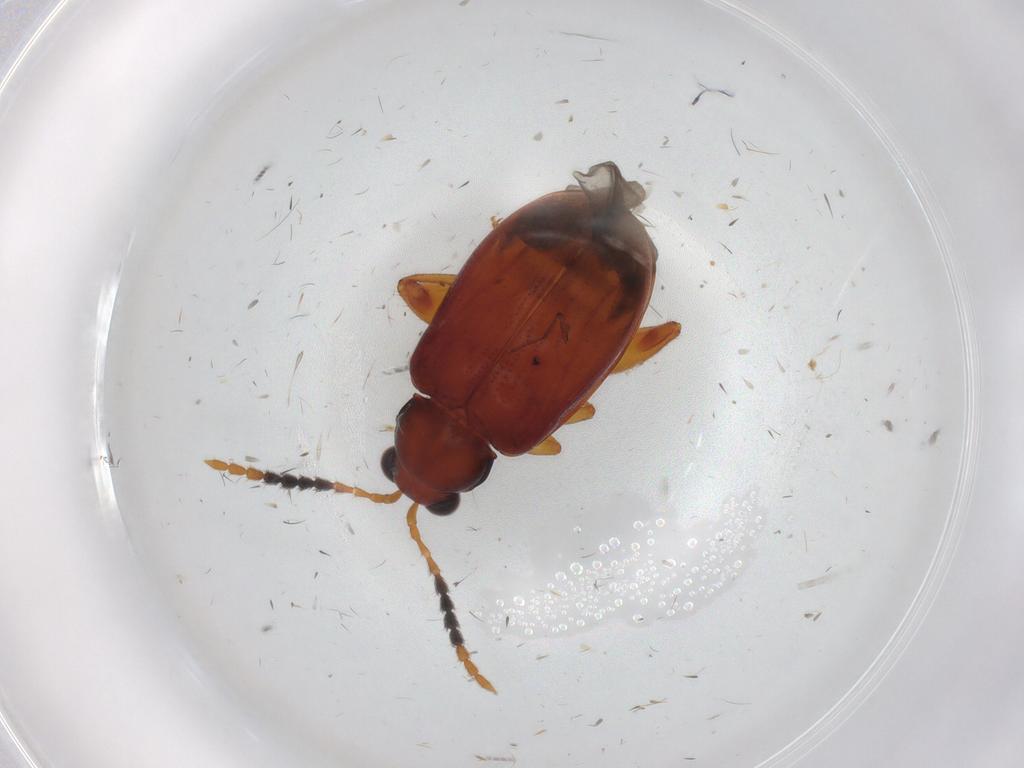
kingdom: Animalia
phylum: Arthropoda
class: Insecta
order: Coleoptera
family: Chrysomelidae
